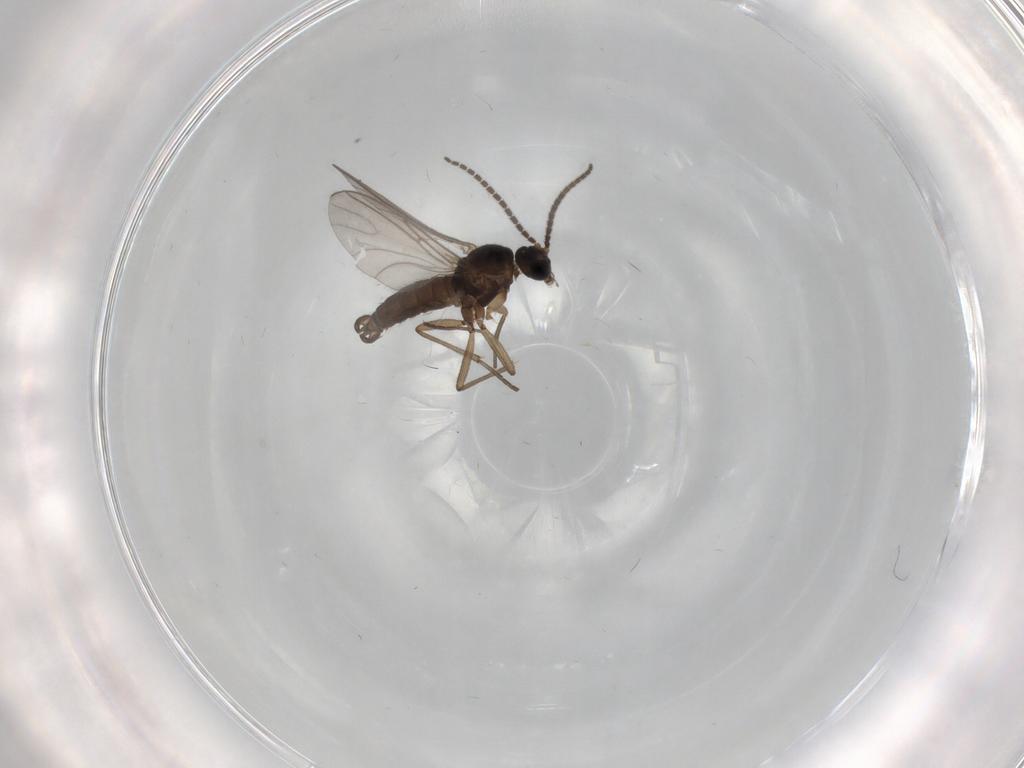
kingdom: Animalia
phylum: Arthropoda
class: Insecta
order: Diptera
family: Sciaridae
